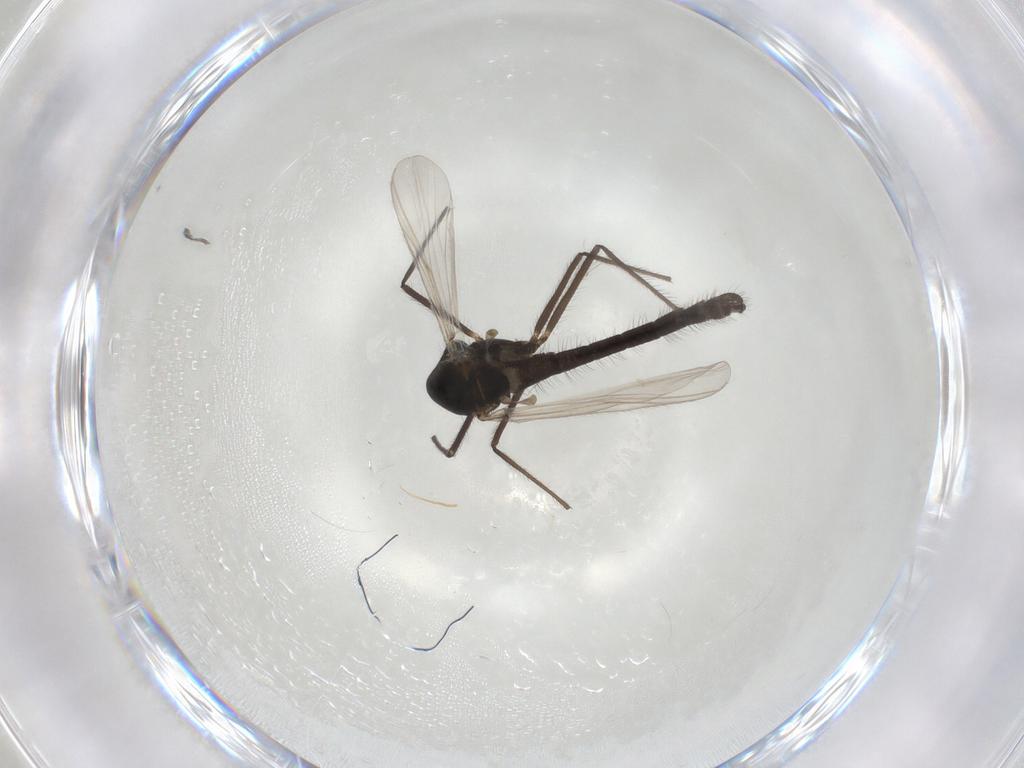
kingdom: Animalia
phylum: Arthropoda
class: Insecta
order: Diptera
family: Chironomidae
